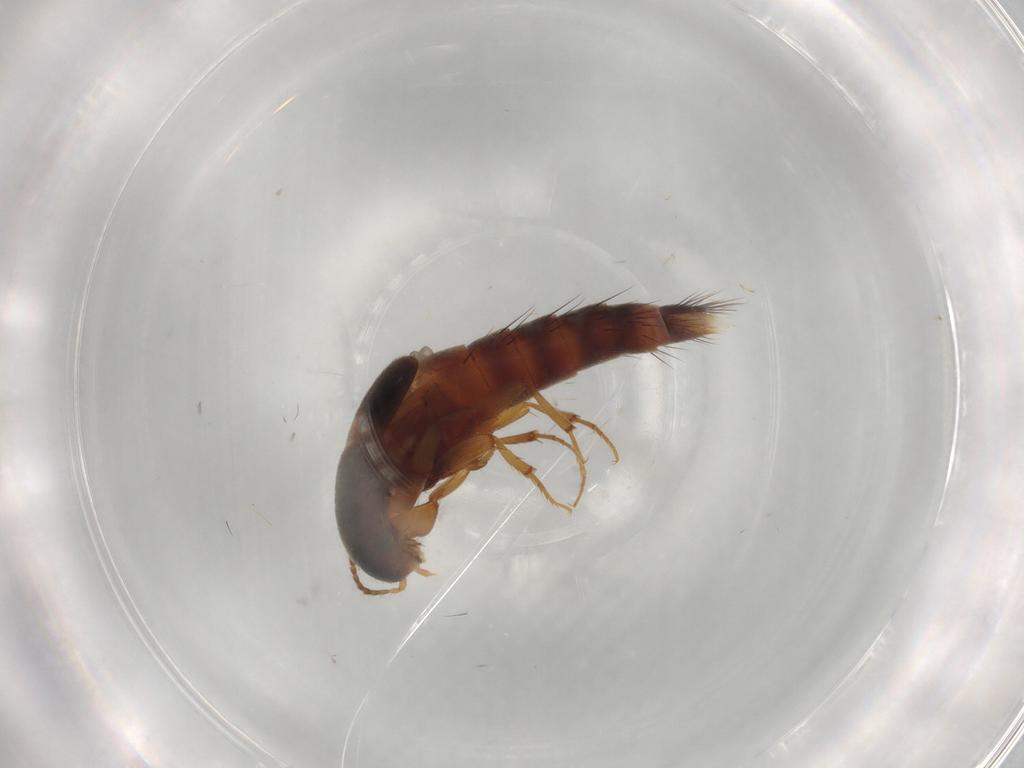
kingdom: Animalia
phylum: Arthropoda
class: Insecta
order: Coleoptera
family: Staphylinidae
